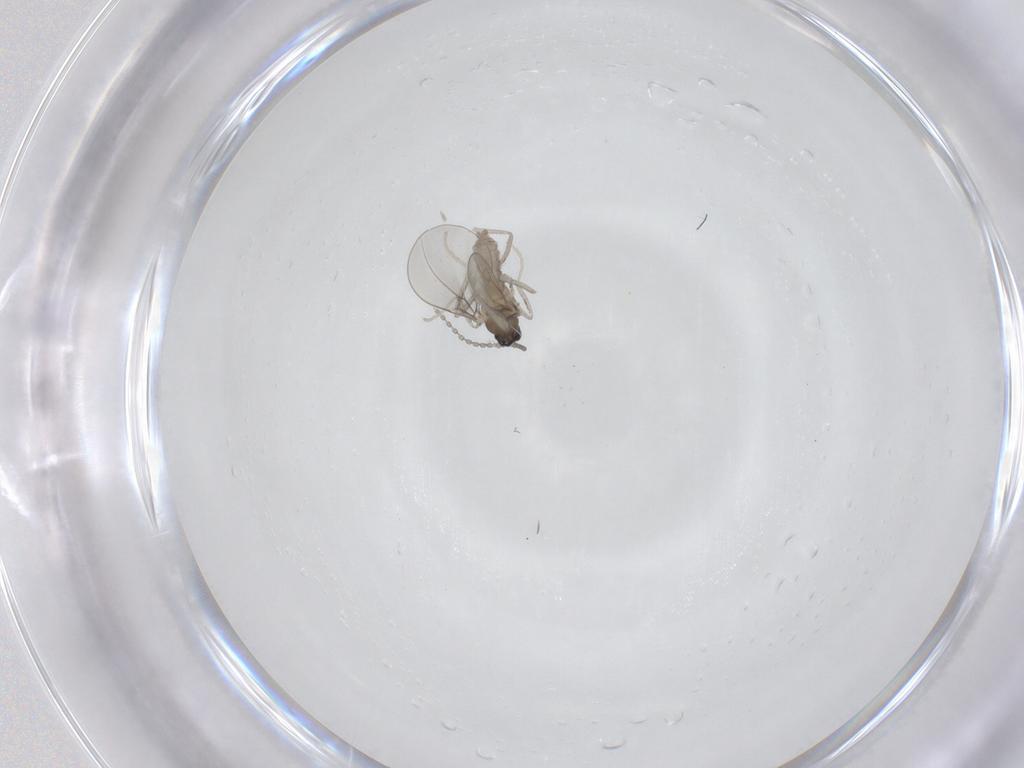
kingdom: Animalia
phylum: Arthropoda
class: Insecta
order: Diptera
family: Cecidomyiidae
